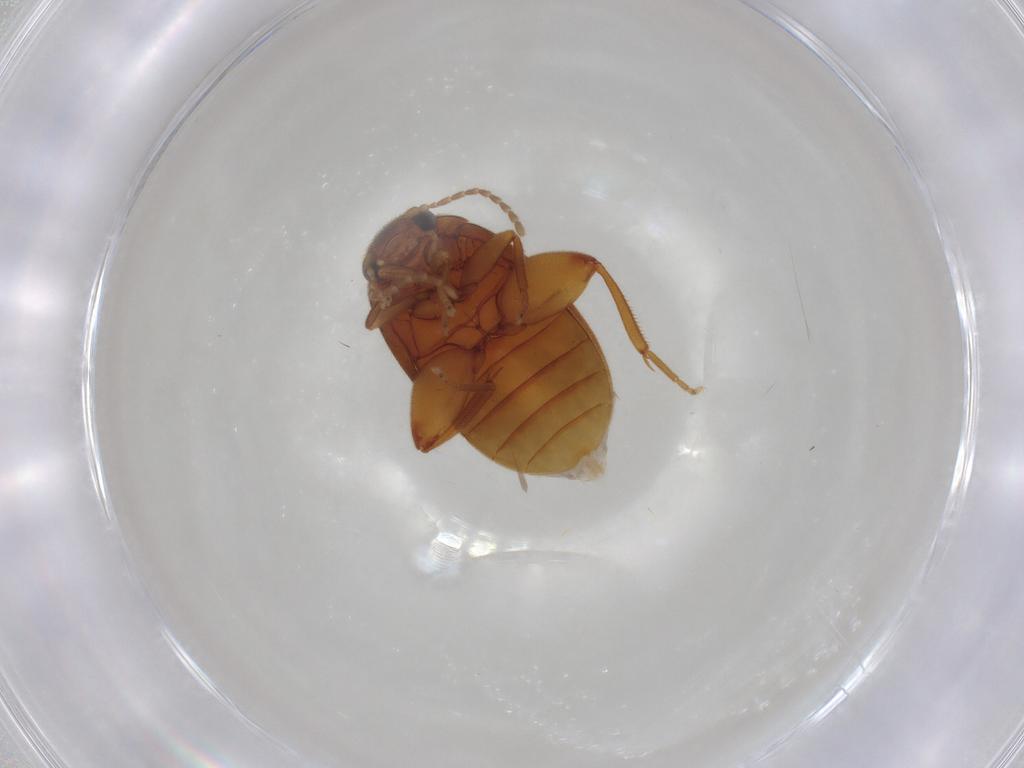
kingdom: Animalia
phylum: Arthropoda
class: Insecta
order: Coleoptera
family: Scirtidae
